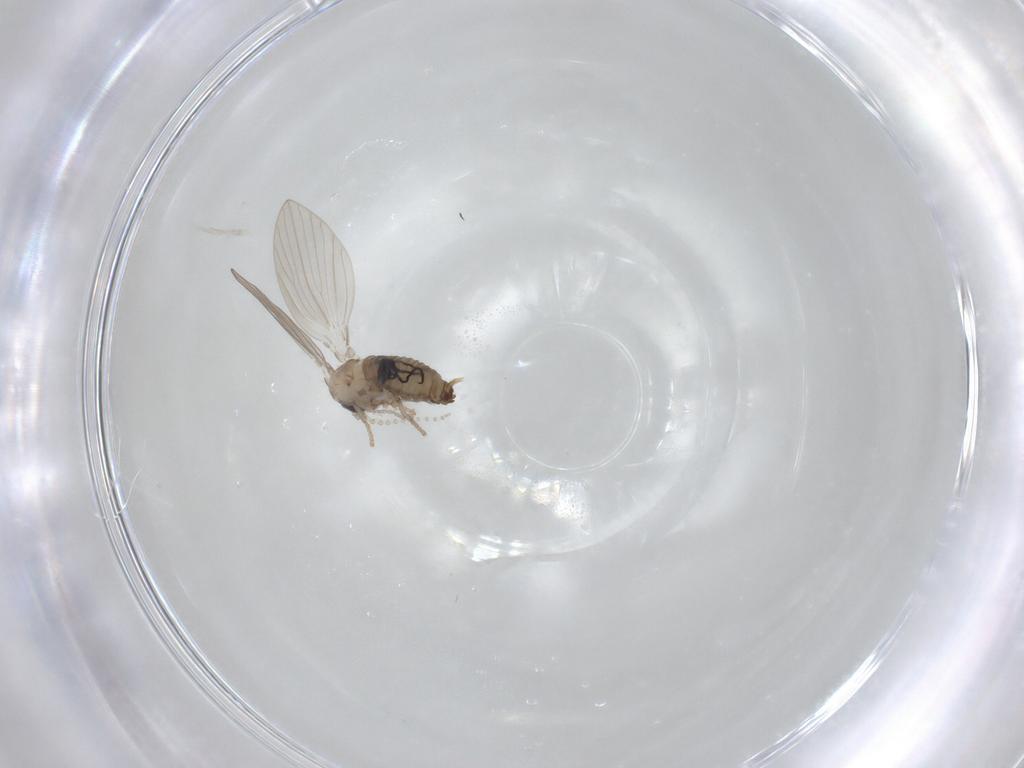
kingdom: Animalia
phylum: Arthropoda
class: Insecta
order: Diptera
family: Psychodidae
